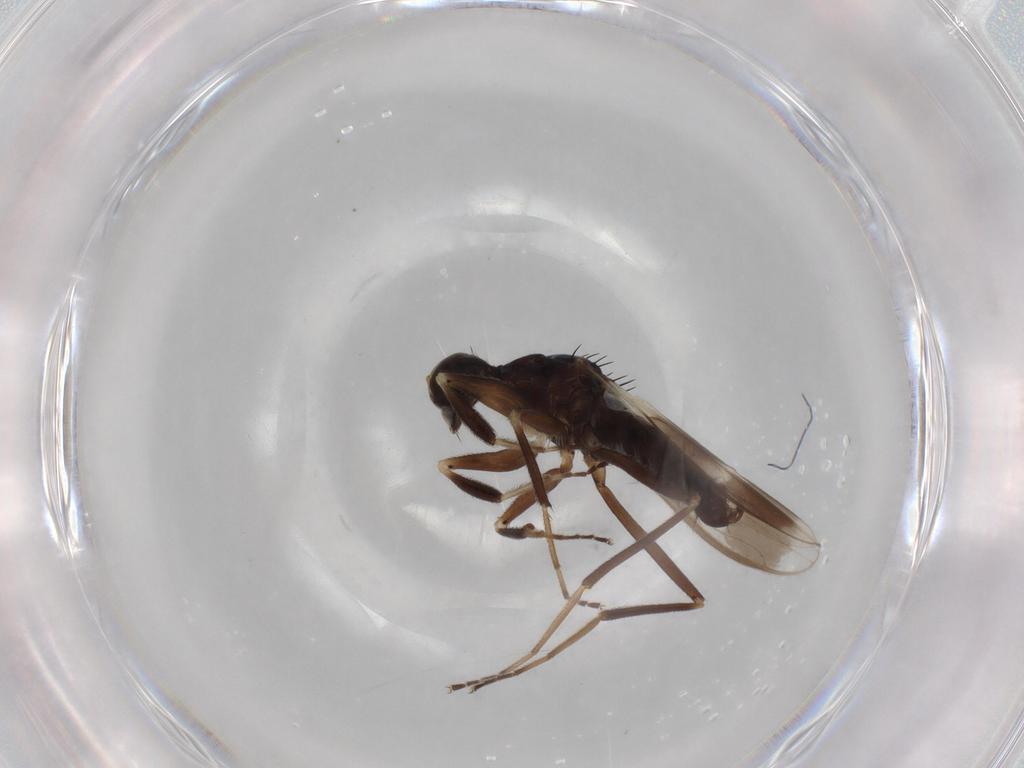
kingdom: Animalia
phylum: Arthropoda
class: Insecta
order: Diptera
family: Hybotidae
